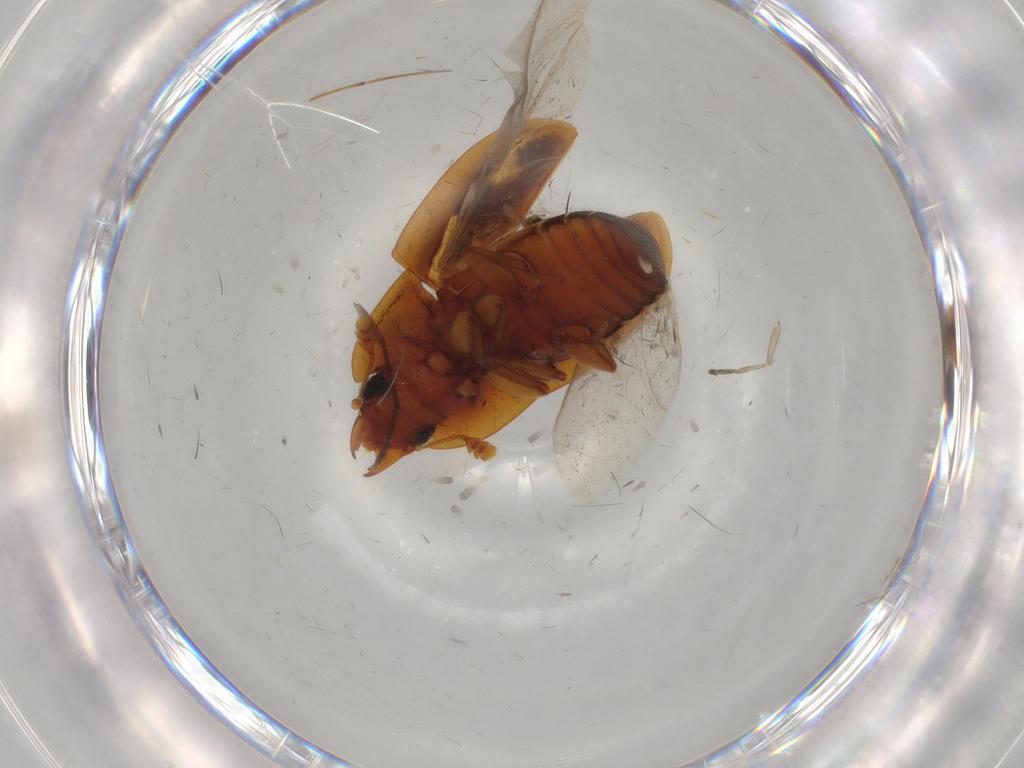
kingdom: Animalia
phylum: Arthropoda
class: Insecta
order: Coleoptera
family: Nitidulidae
